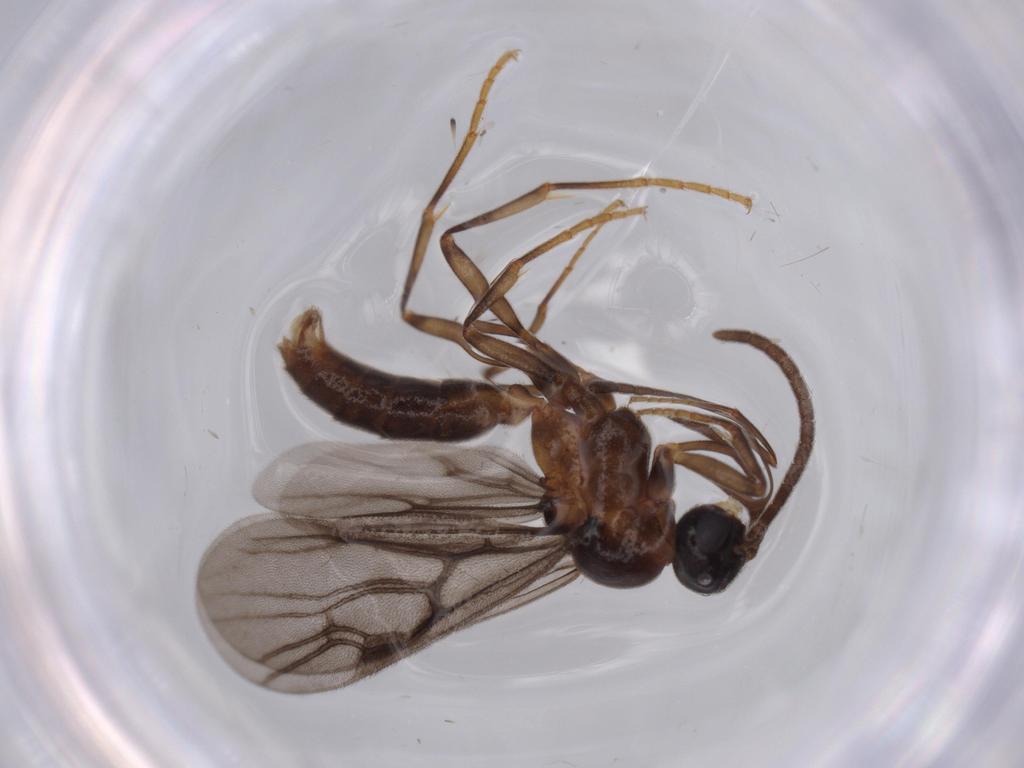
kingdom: Animalia
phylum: Arthropoda
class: Insecta
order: Hymenoptera
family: Formicidae
